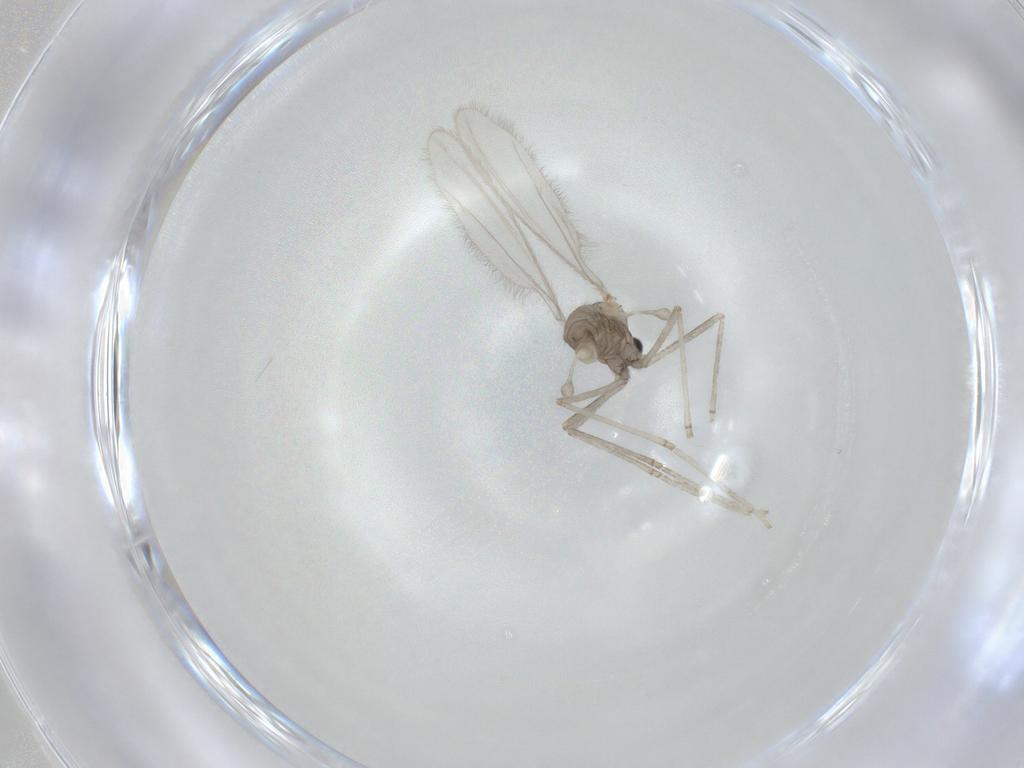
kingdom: Animalia
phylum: Arthropoda
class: Insecta
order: Diptera
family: Cecidomyiidae
